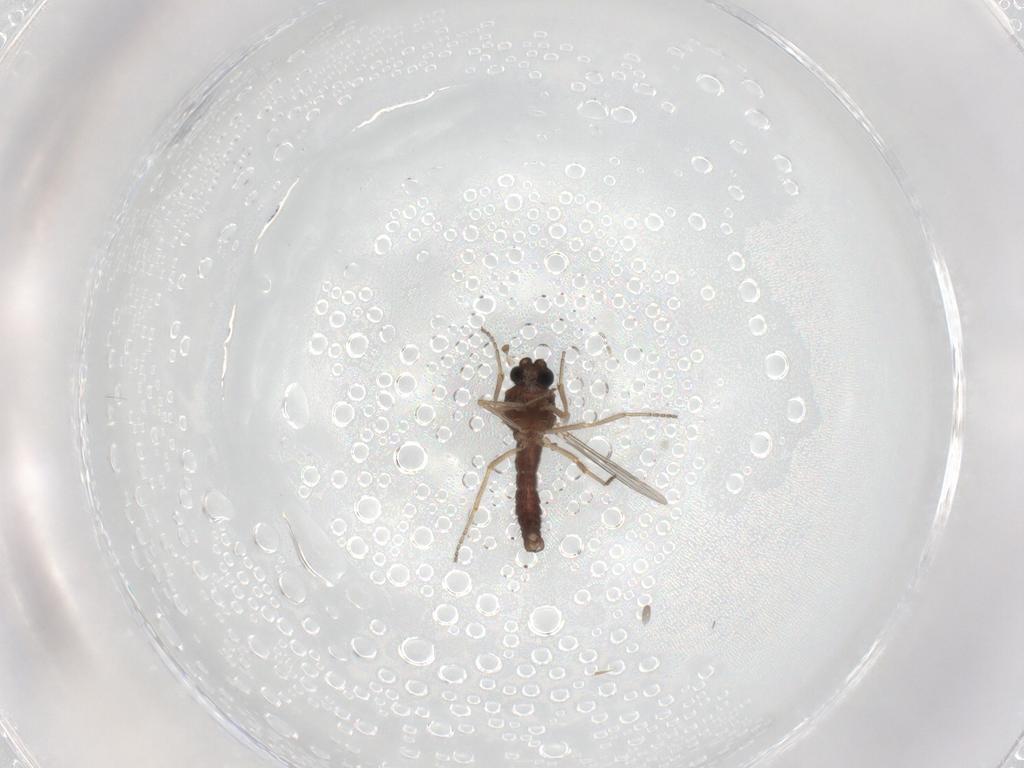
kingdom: Animalia
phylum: Arthropoda
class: Insecta
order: Diptera
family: Ceratopogonidae
